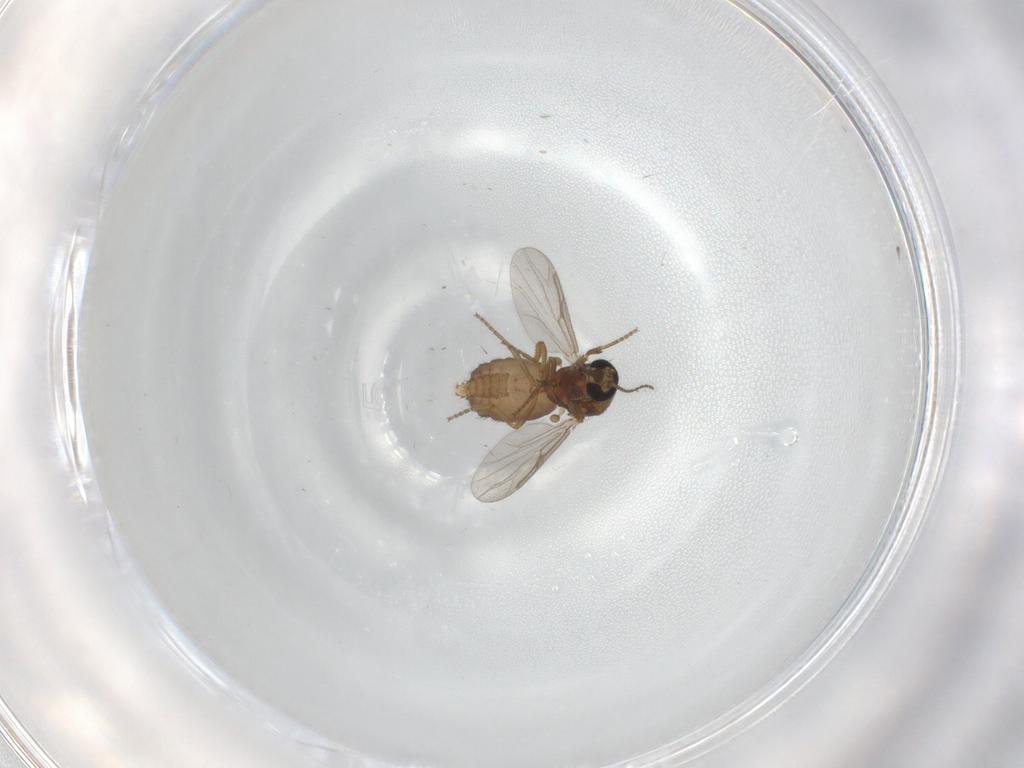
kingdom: Animalia
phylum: Arthropoda
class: Insecta
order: Diptera
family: Ceratopogonidae
